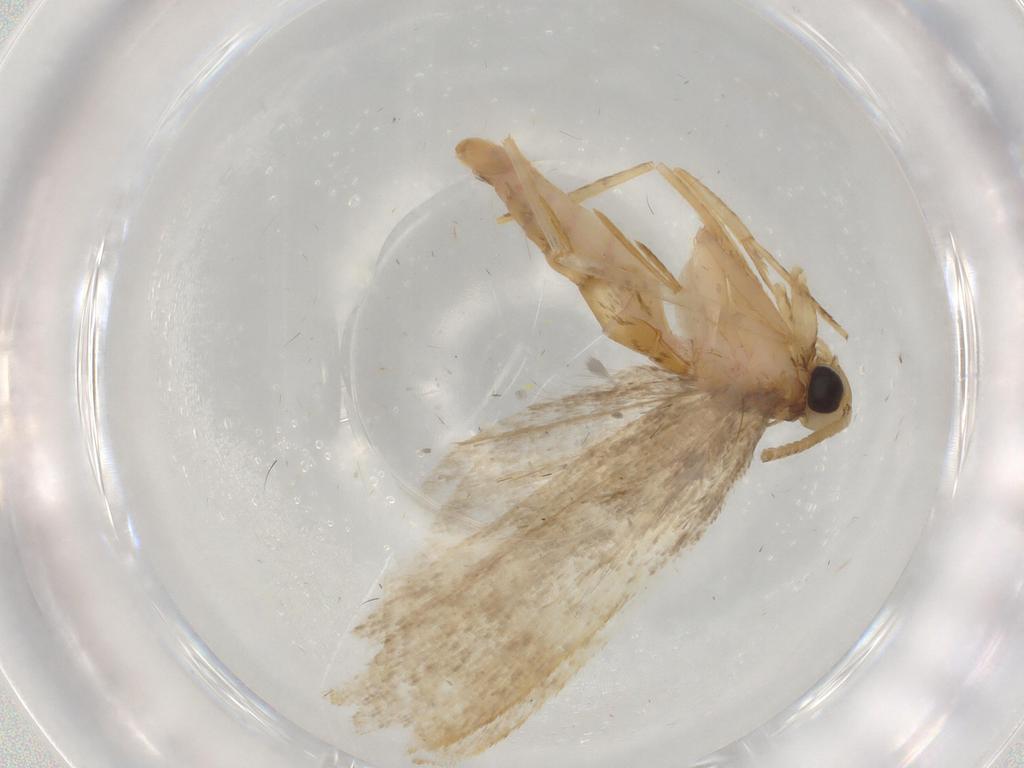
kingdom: Animalia
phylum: Arthropoda
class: Insecta
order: Lepidoptera
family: Autostichidae
